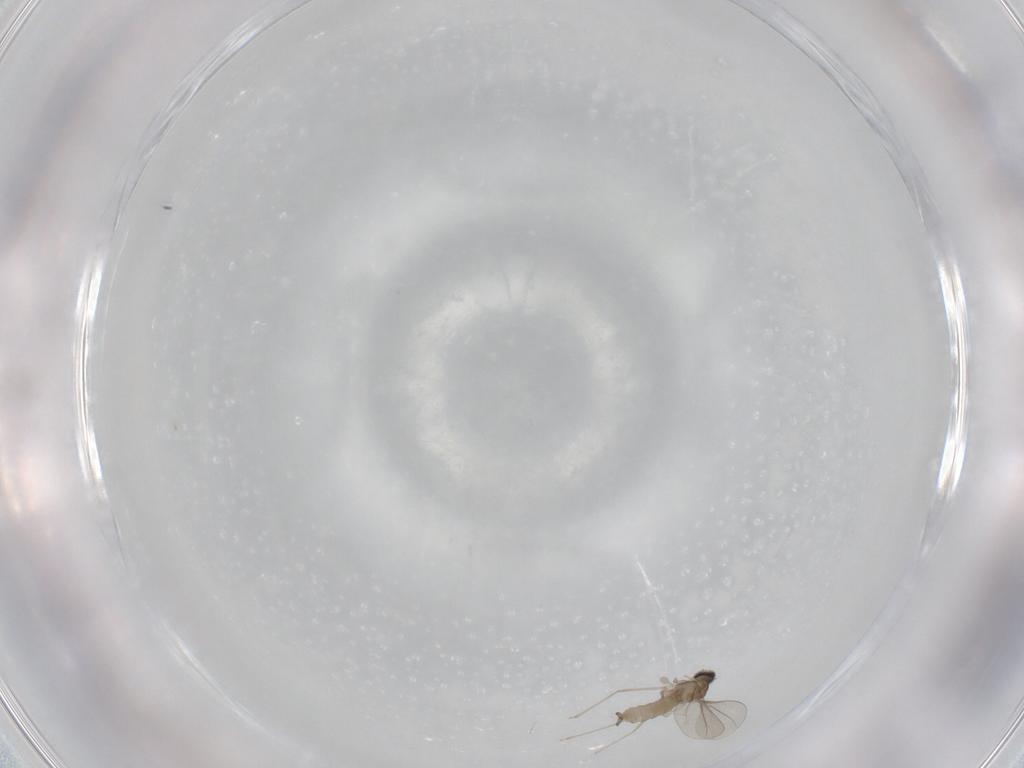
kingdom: Animalia
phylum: Arthropoda
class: Insecta
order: Diptera
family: Cecidomyiidae
